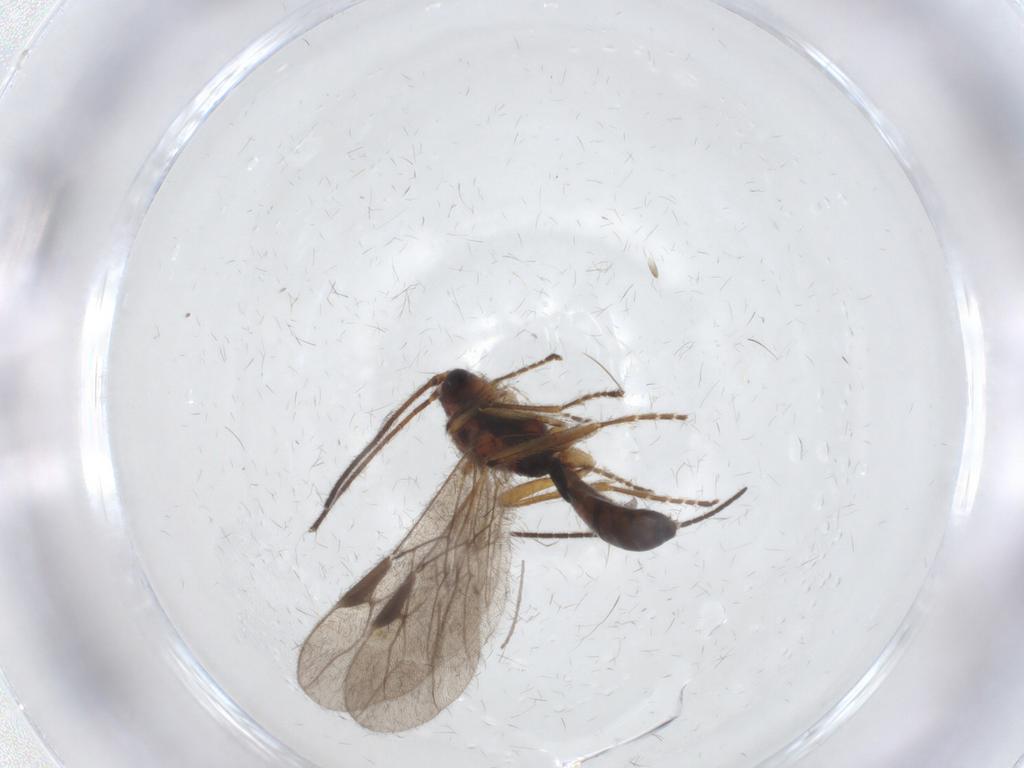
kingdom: Animalia
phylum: Arthropoda
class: Insecta
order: Hymenoptera
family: Braconidae
